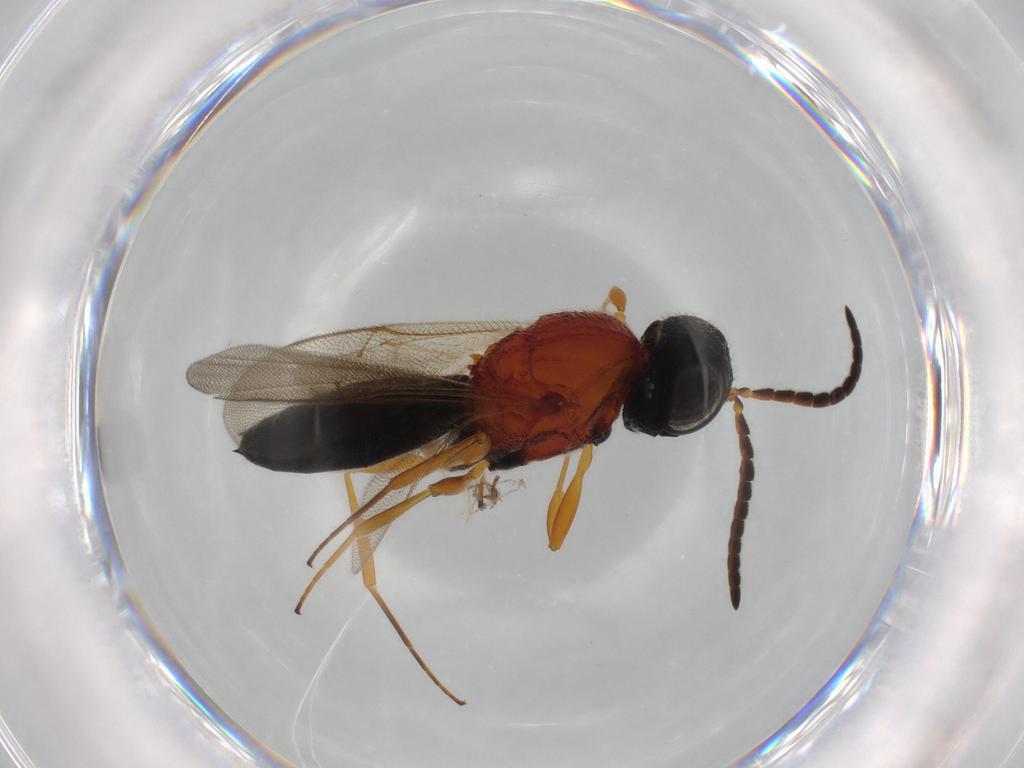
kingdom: Animalia
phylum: Arthropoda
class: Insecta
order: Diptera
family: Cecidomyiidae
